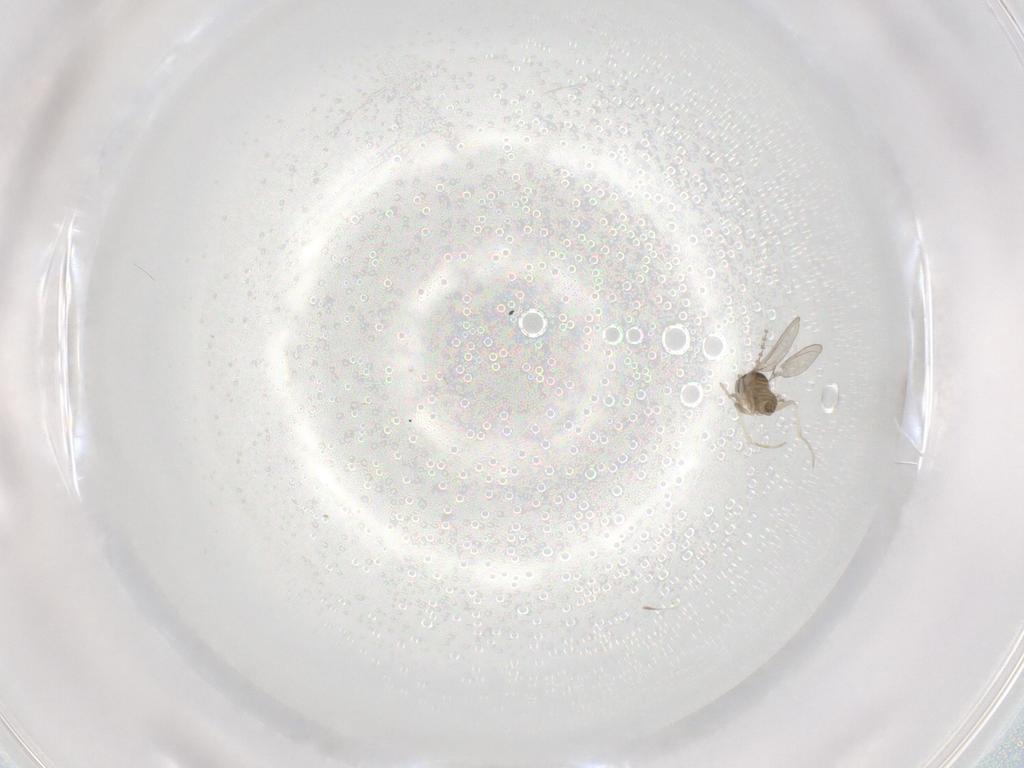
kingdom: Animalia
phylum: Arthropoda
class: Insecta
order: Diptera
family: Cecidomyiidae
